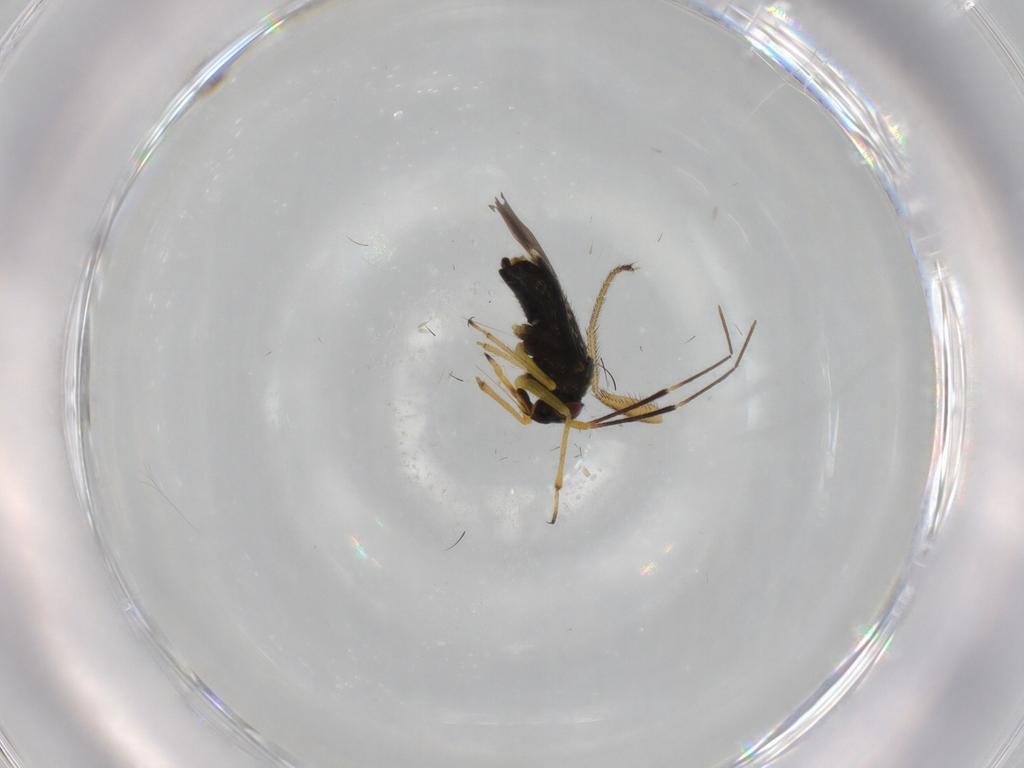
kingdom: Animalia
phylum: Arthropoda
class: Insecta
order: Hemiptera
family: Miridae
